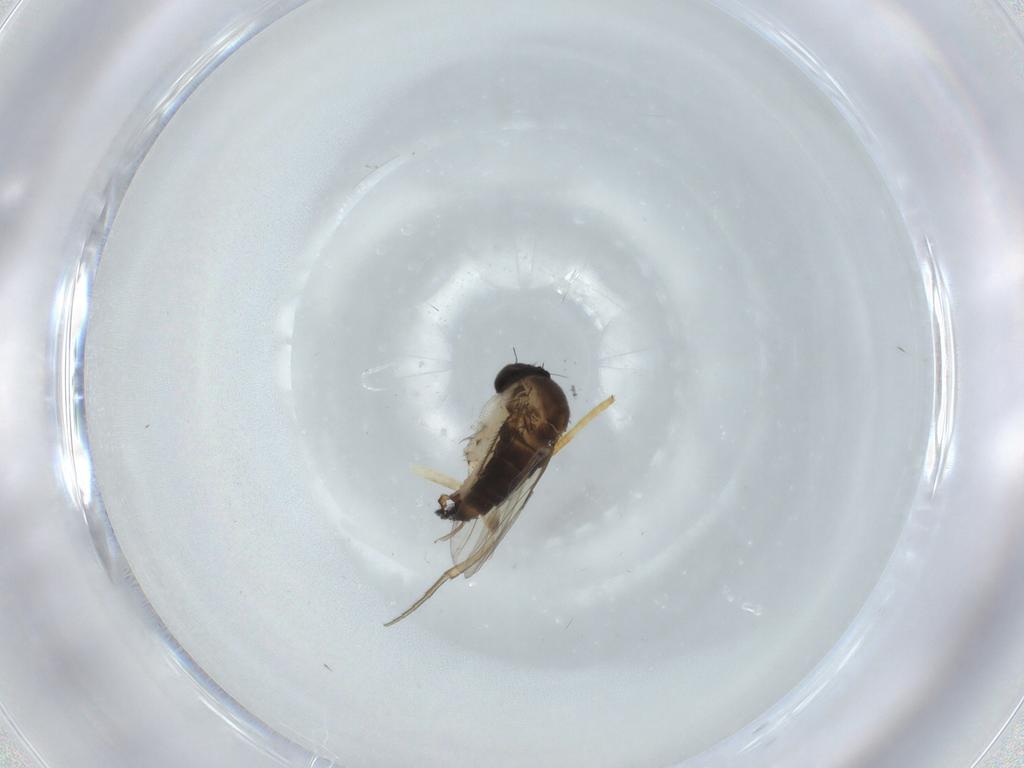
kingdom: Animalia
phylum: Arthropoda
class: Insecta
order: Diptera
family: Phoridae
